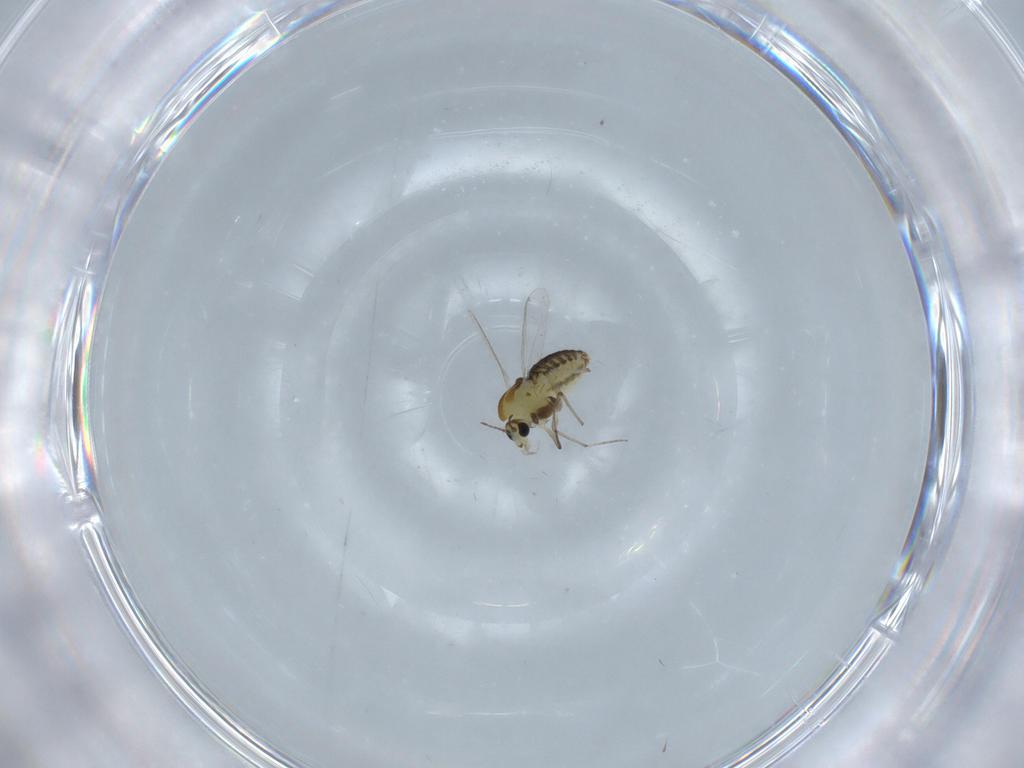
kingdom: Animalia
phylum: Arthropoda
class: Insecta
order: Diptera
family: Chironomidae
